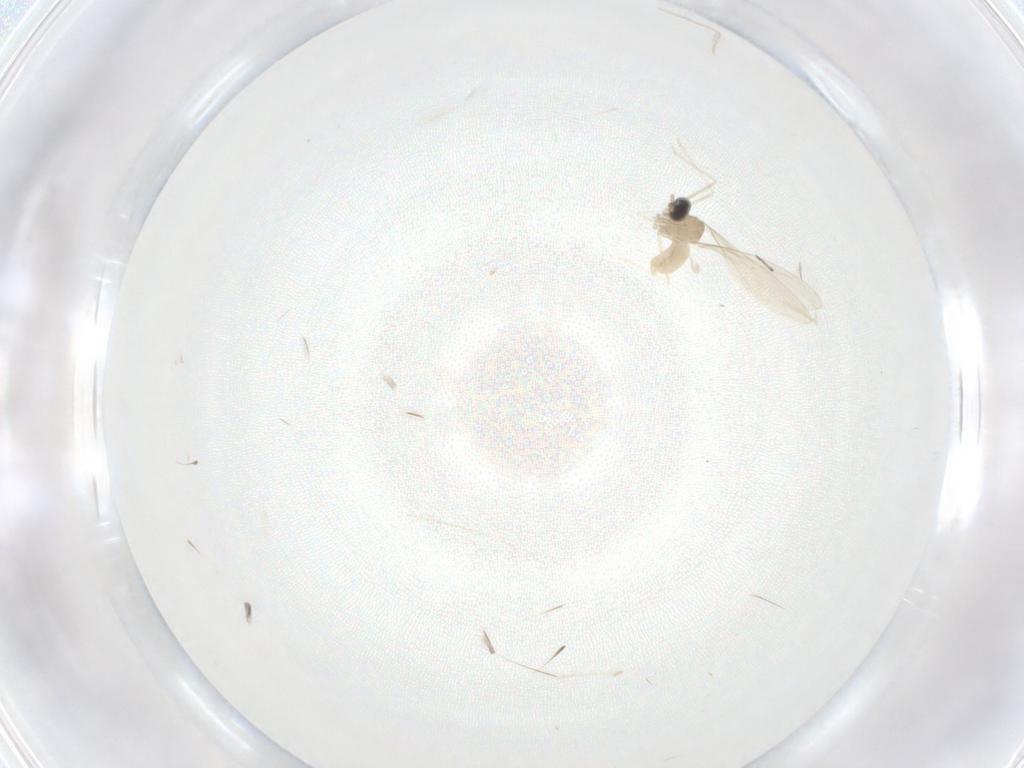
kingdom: Animalia
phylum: Arthropoda
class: Insecta
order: Diptera
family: Cecidomyiidae
